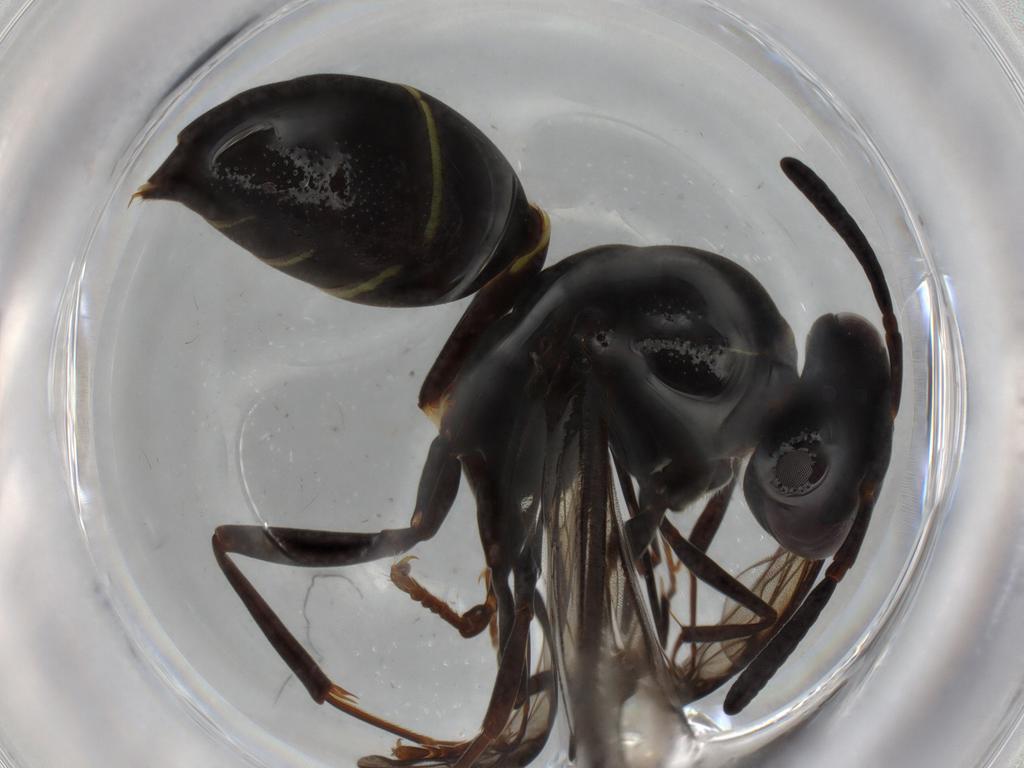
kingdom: Animalia
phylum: Arthropoda
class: Insecta
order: Hymenoptera
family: Vespidae
